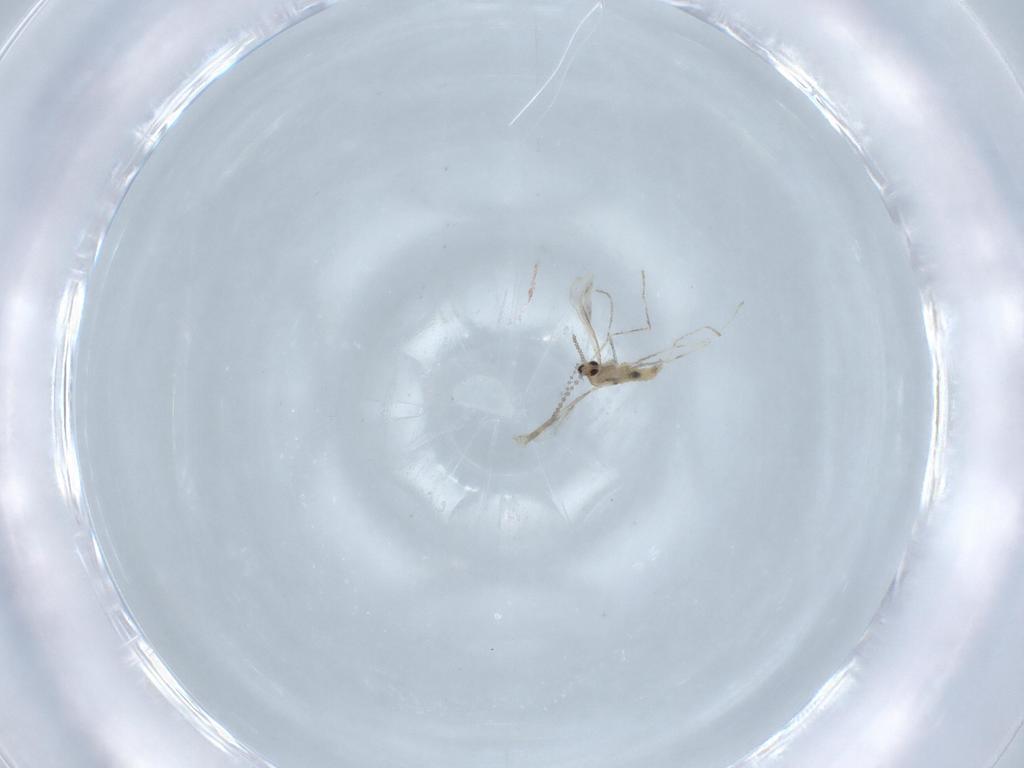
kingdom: Animalia
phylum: Arthropoda
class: Insecta
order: Diptera
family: Cecidomyiidae
